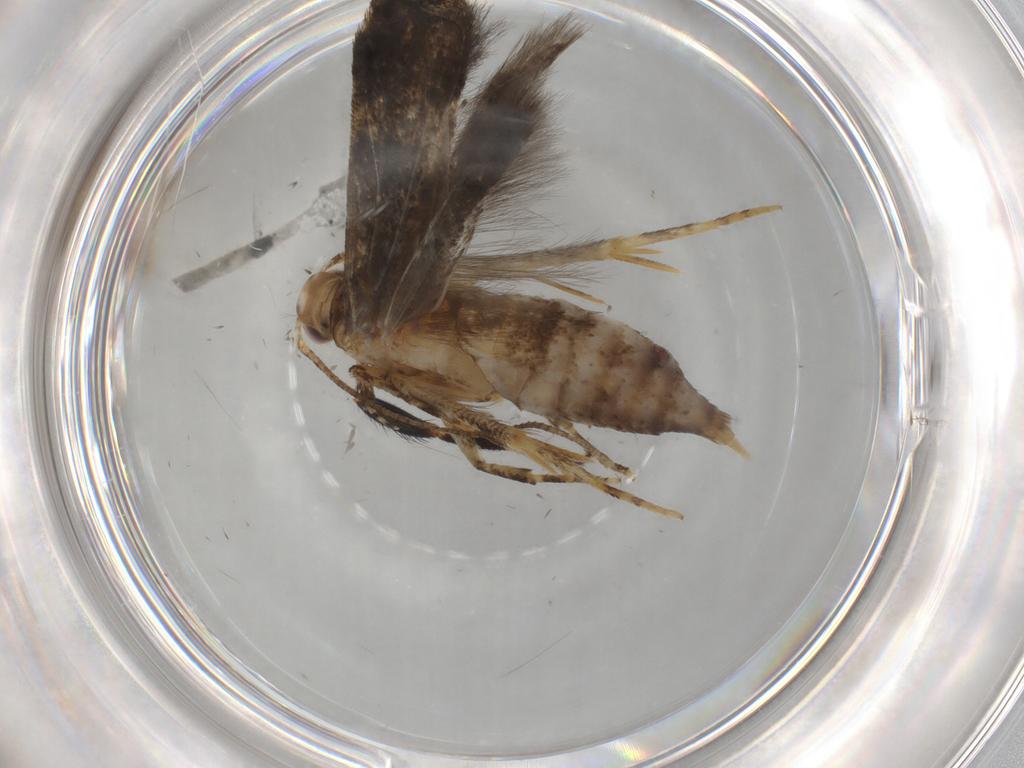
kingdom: Animalia
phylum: Arthropoda
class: Insecta
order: Lepidoptera
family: Gelechiidae
